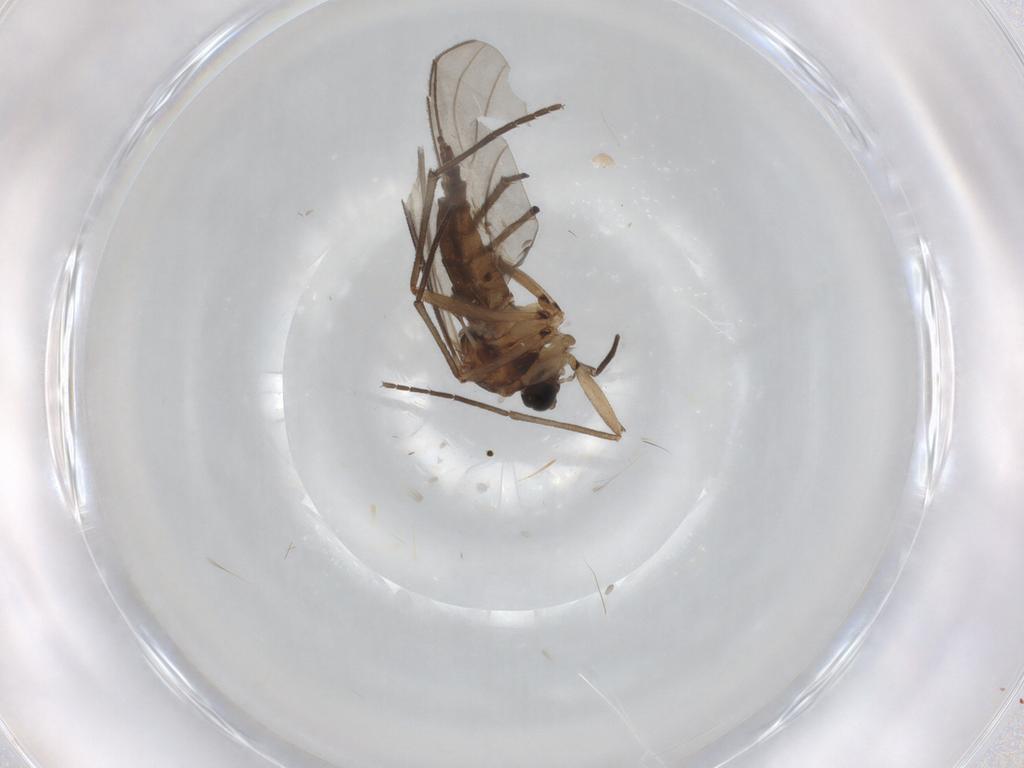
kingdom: Animalia
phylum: Arthropoda
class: Insecta
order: Diptera
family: Sciaridae
